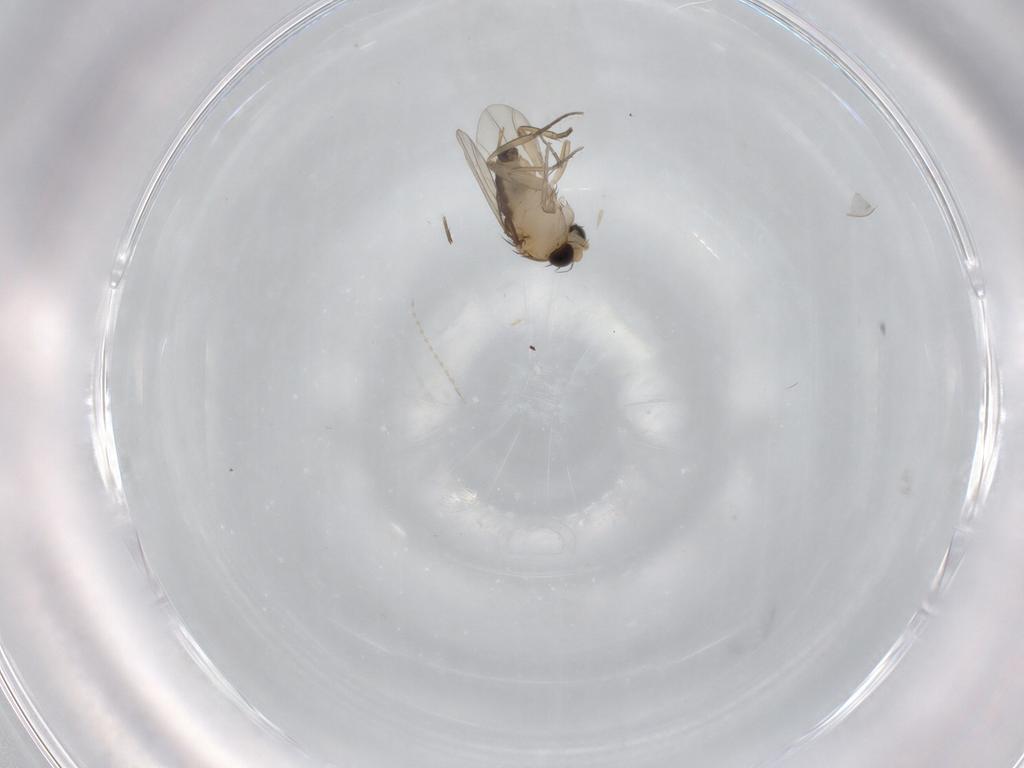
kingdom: Animalia
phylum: Arthropoda
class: Insecta
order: Diptera
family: Phoridae
